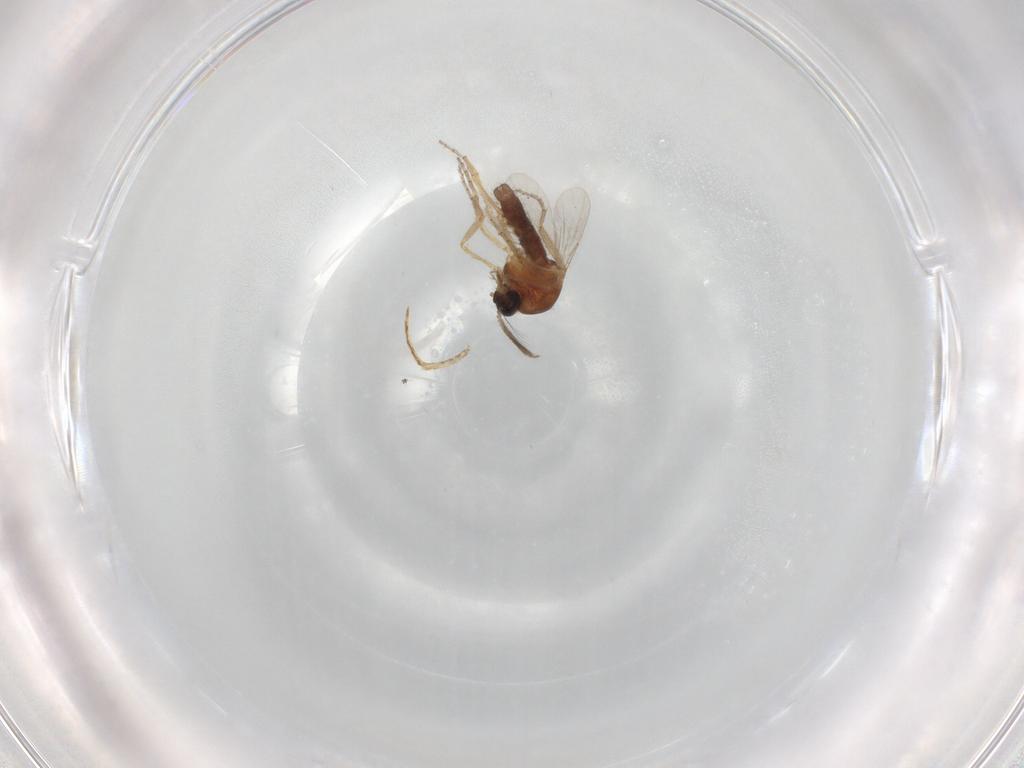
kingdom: Animalia
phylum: Arthropoda
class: Insecta
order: Diptera
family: Ceratopogonidae
